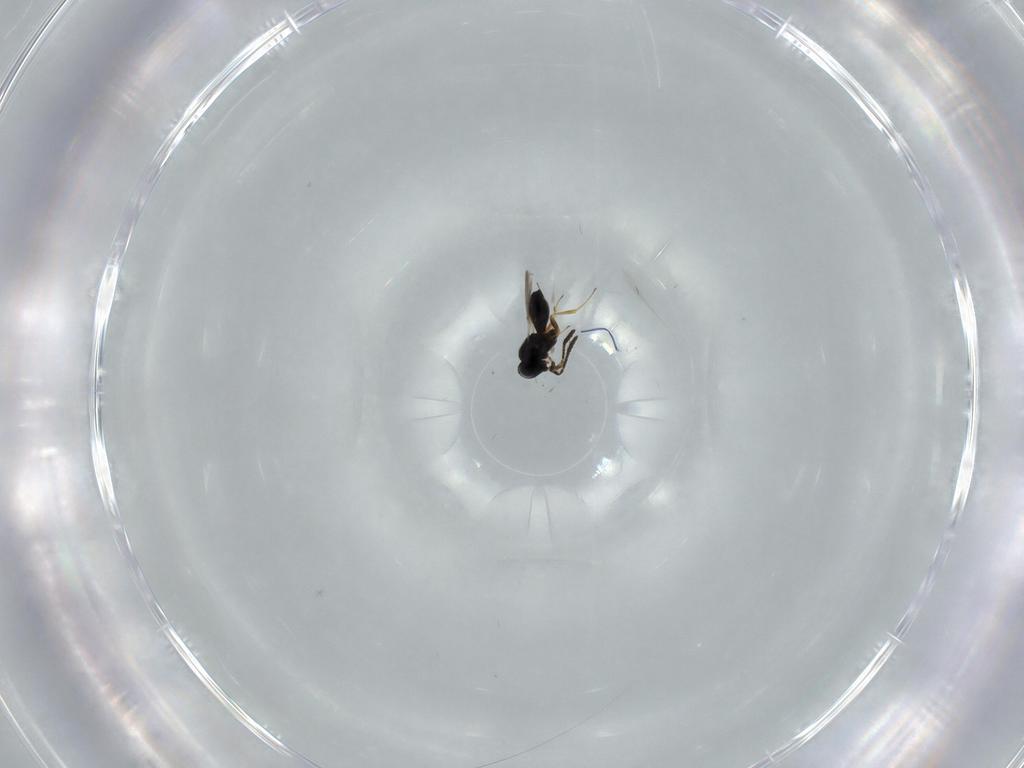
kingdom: Animalia
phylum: Arthropoda
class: Insecta
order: Hymenoptera
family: Scelionidae
